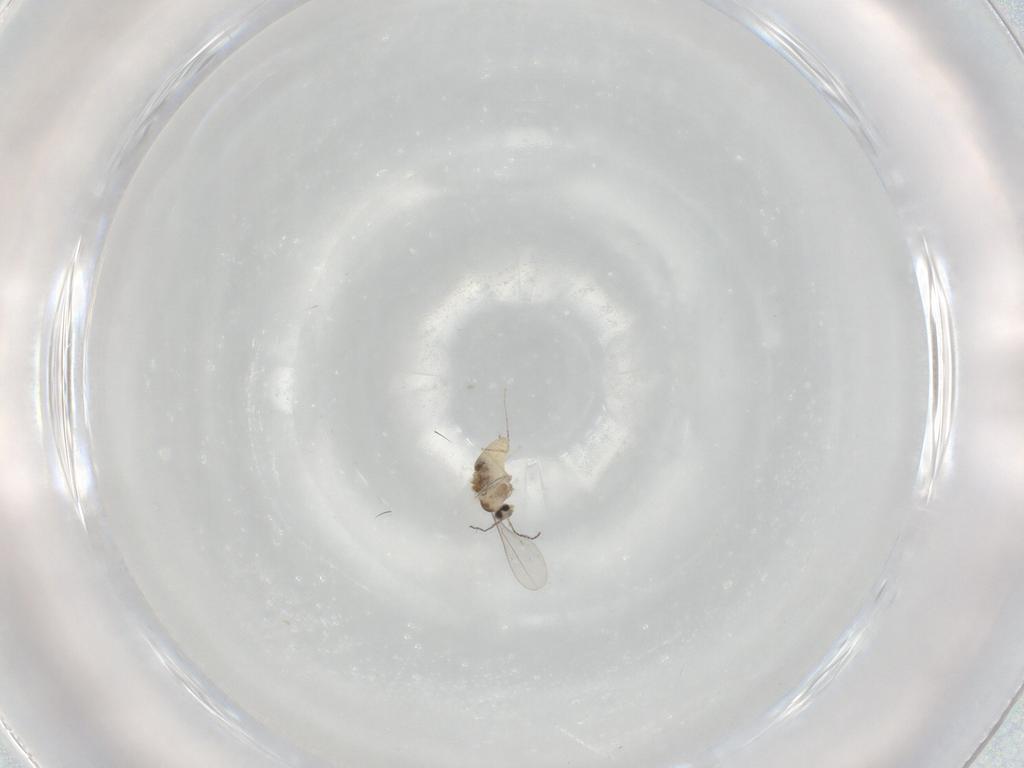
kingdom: Animalia
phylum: Arthropoda
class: Insecta
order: Diptera
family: Cecidomyiidae
